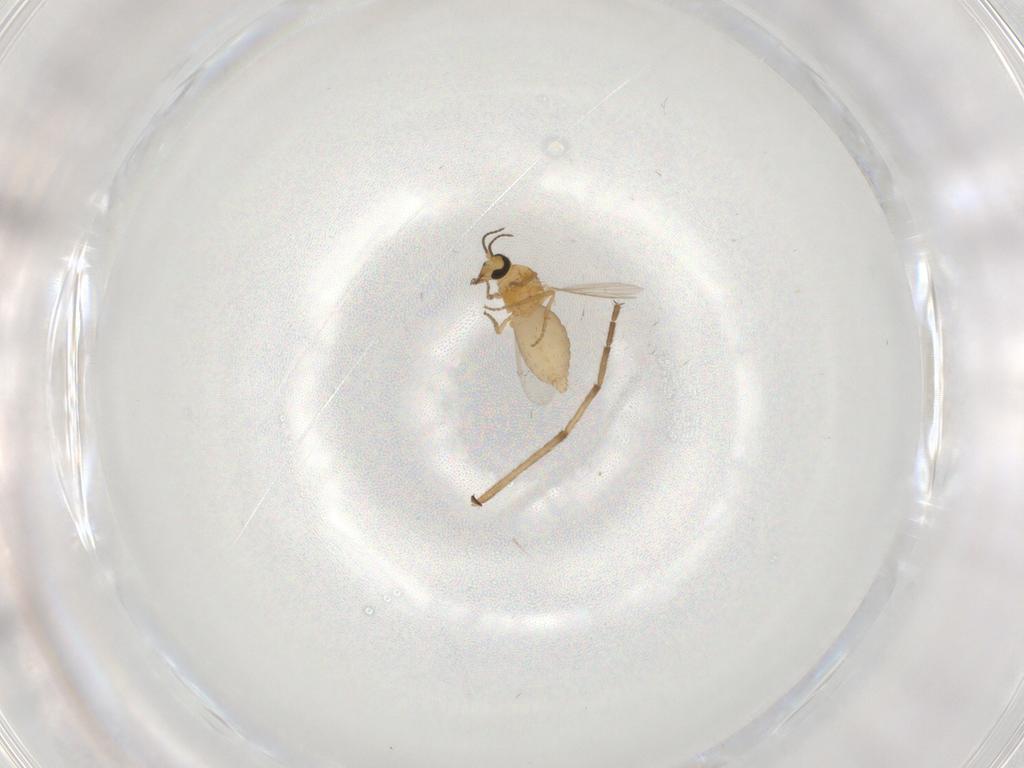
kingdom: Animalia
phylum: Arthropoda
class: Insecta
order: Diptera
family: Ceratopogonidae
